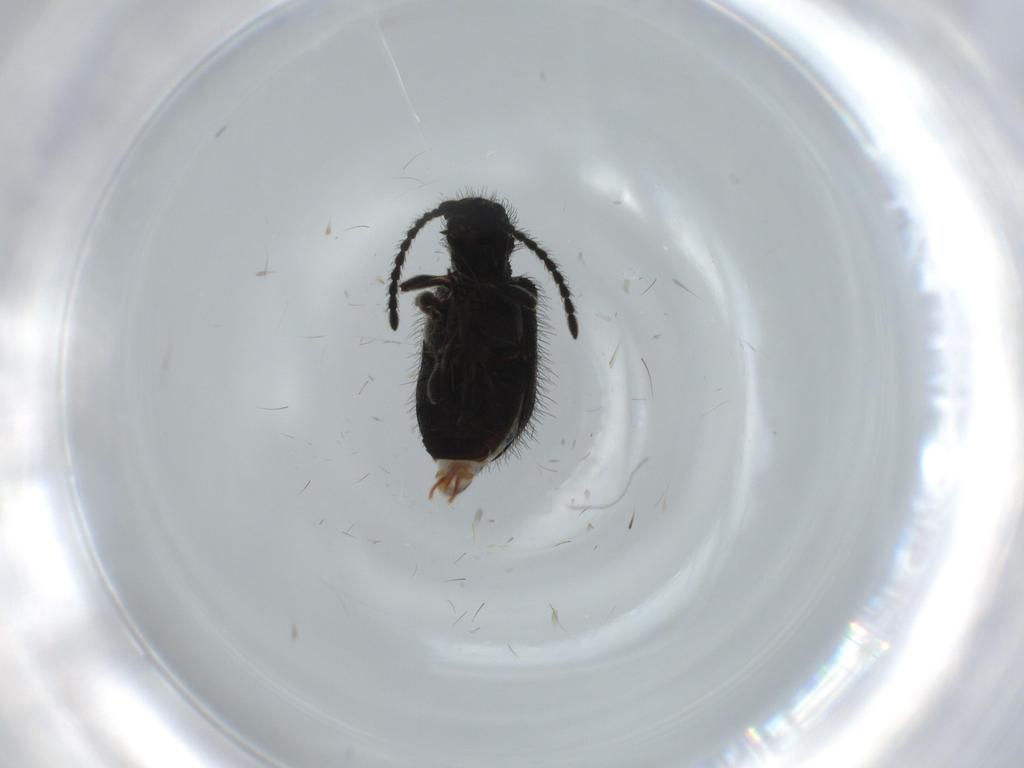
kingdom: Animalia
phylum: Arthropoda
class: Insecta
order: Coleoptera
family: Ptinidae
